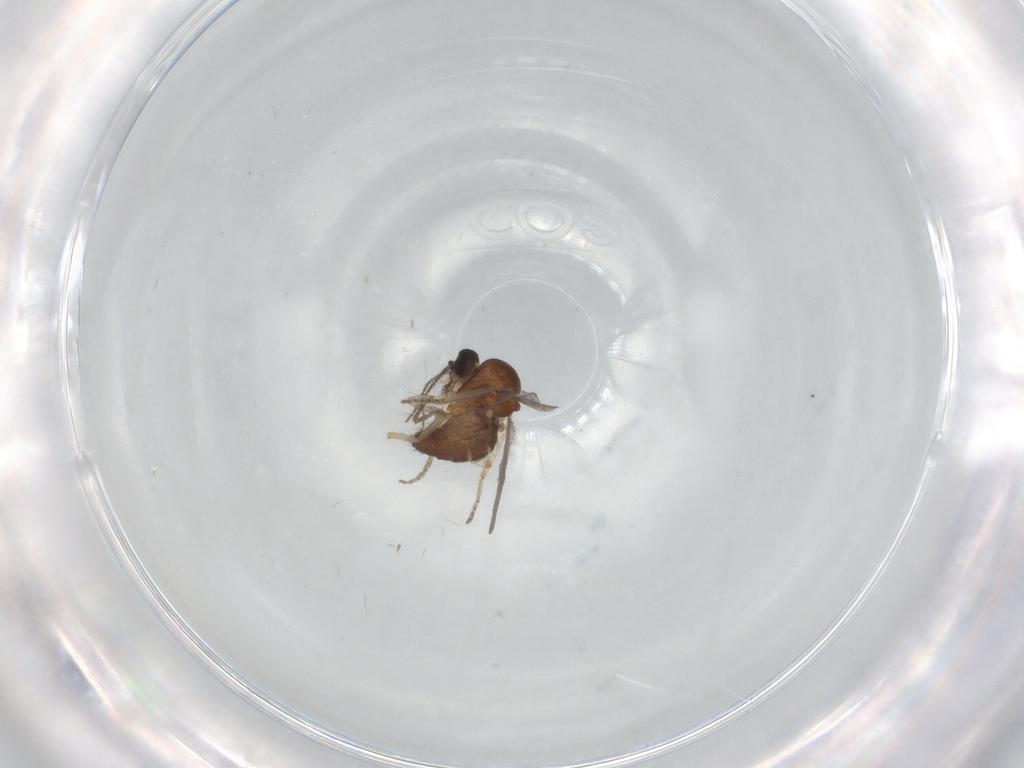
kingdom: Animalia
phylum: Arthropoda
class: Insecta
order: Diptera
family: Ceratopogonidae
